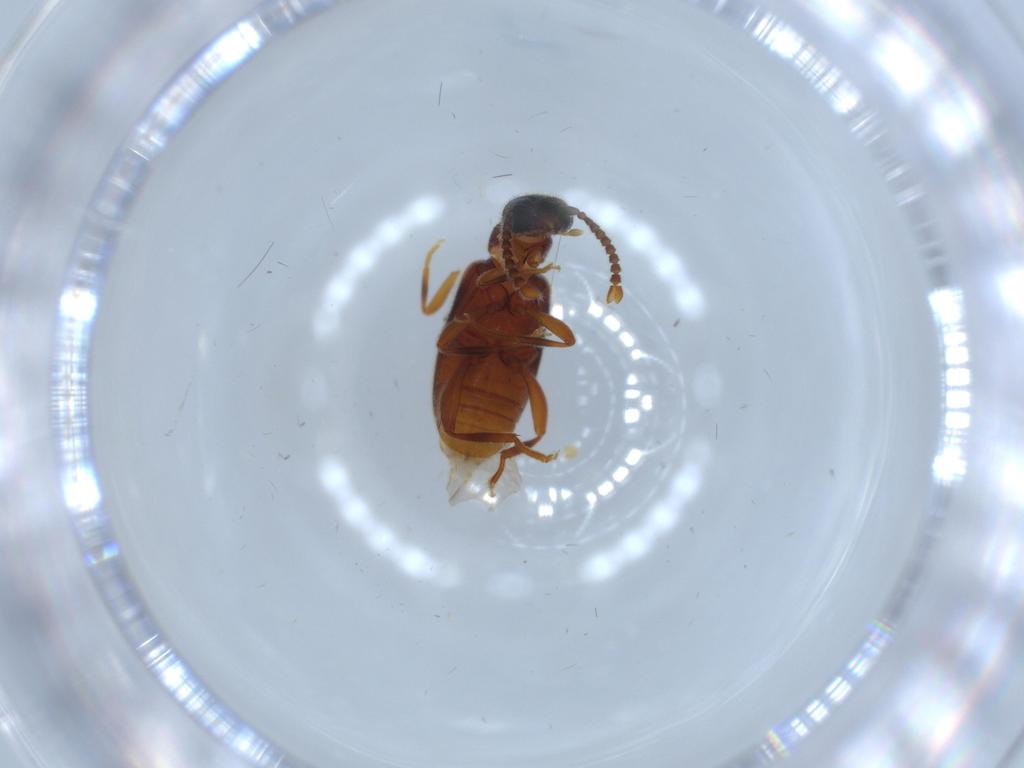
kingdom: Animalia
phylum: Arthropoda
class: Insecta
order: Coleoptera
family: Aderidae
